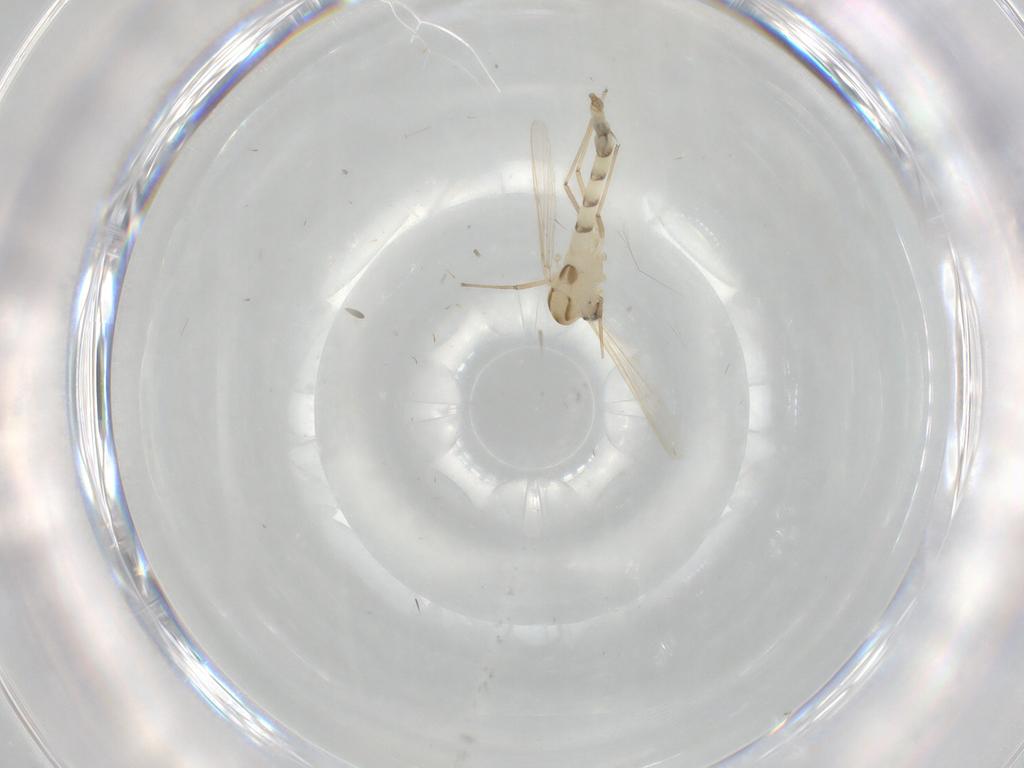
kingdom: Animalia
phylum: Arthropoda
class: Insecta
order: Diptera
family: Chironomidae
